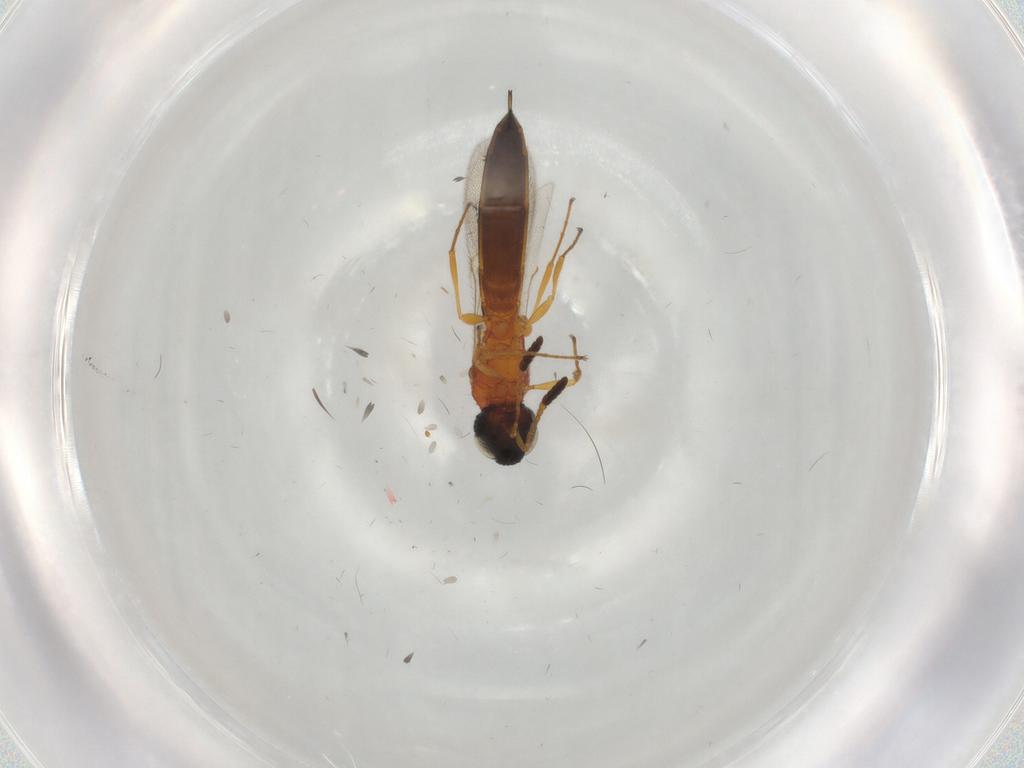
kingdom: Animalia
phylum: Arthropoda
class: Insecta
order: Hymenoptera
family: Scelionidae
